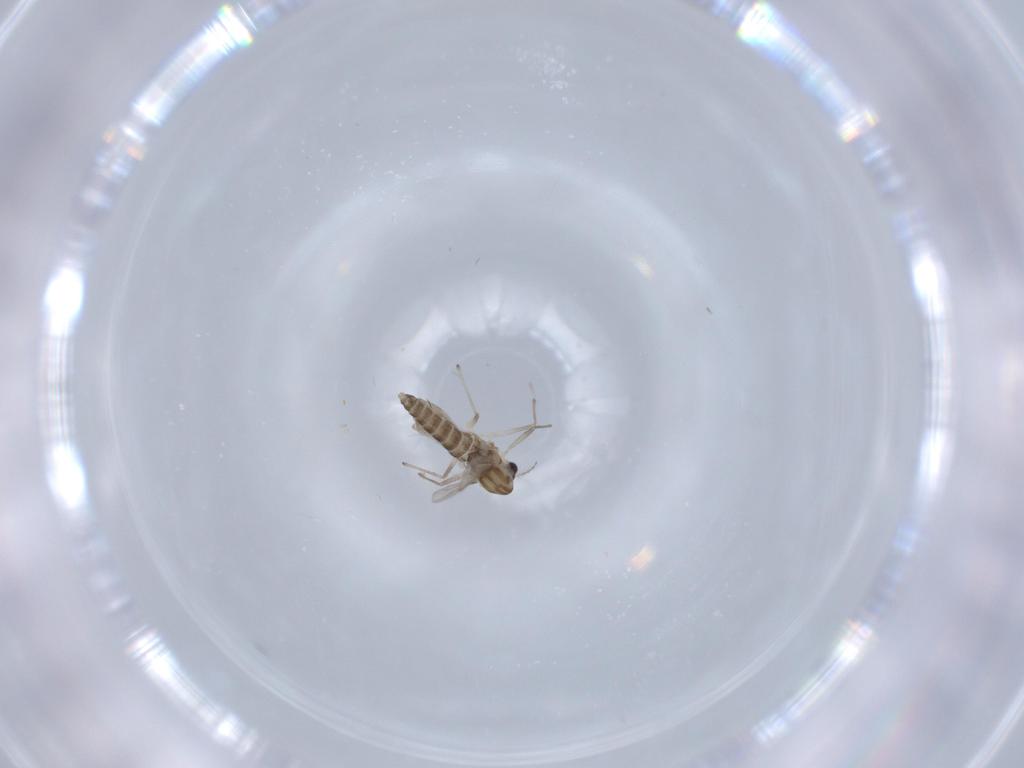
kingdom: Animalia
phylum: Arthropoda
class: Insecta
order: Diptera
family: Chironomidae
